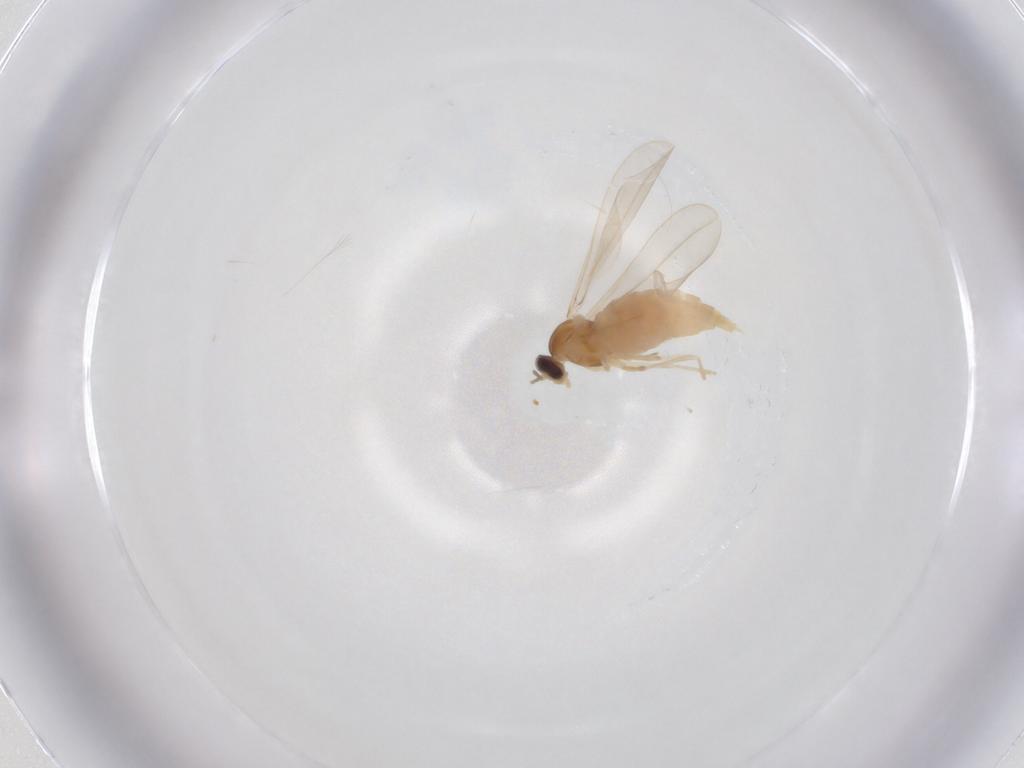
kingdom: Animalia
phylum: Arthropoda
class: Insecta
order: Diptera
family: Cecidomyiidae
